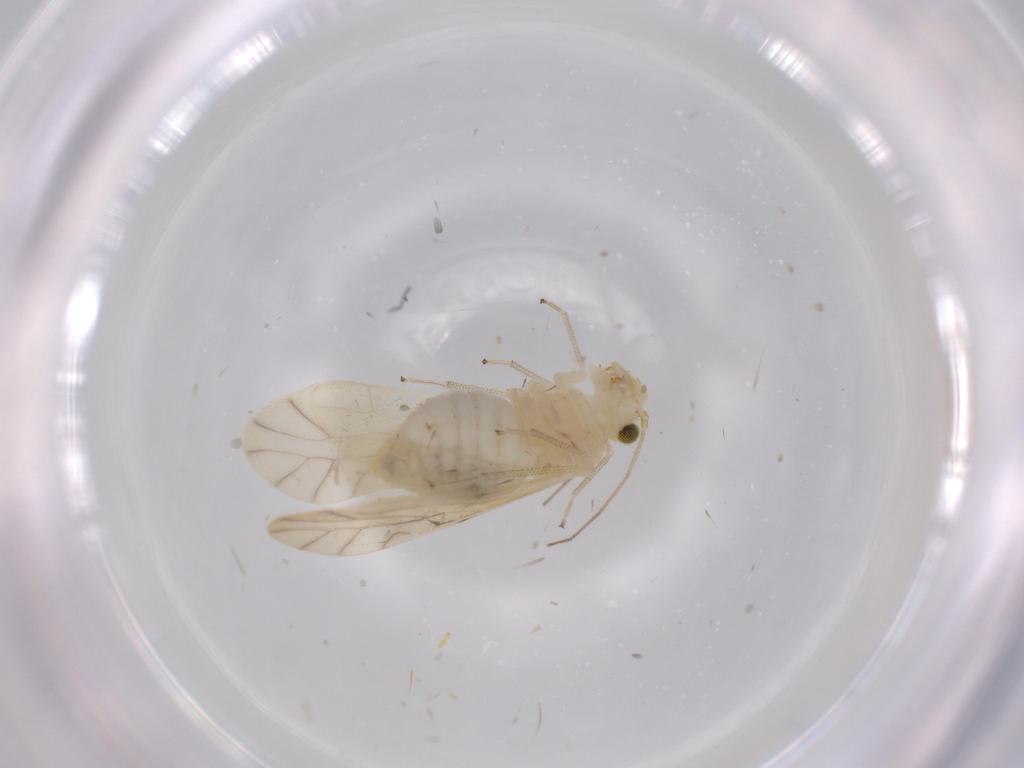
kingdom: Animalia
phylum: Arthropoda
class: Insecta
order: Psocodea
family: Caeciliusidae
